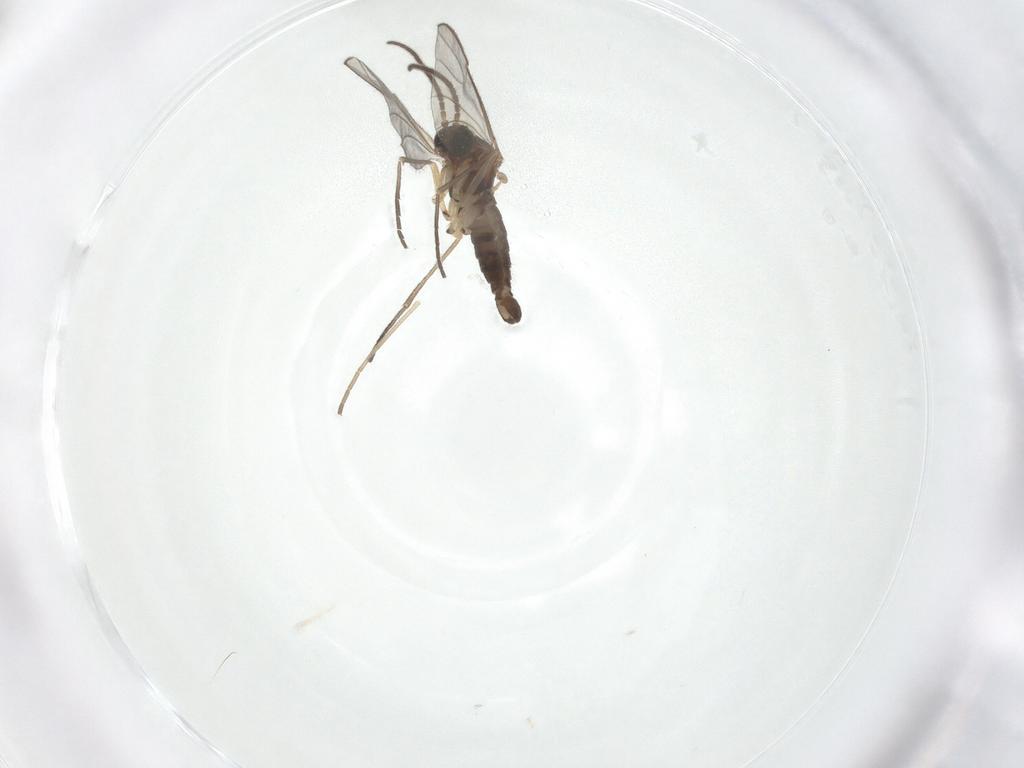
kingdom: Animalia
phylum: Arthropoda
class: Insecta
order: Diptera
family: Sciaridae
